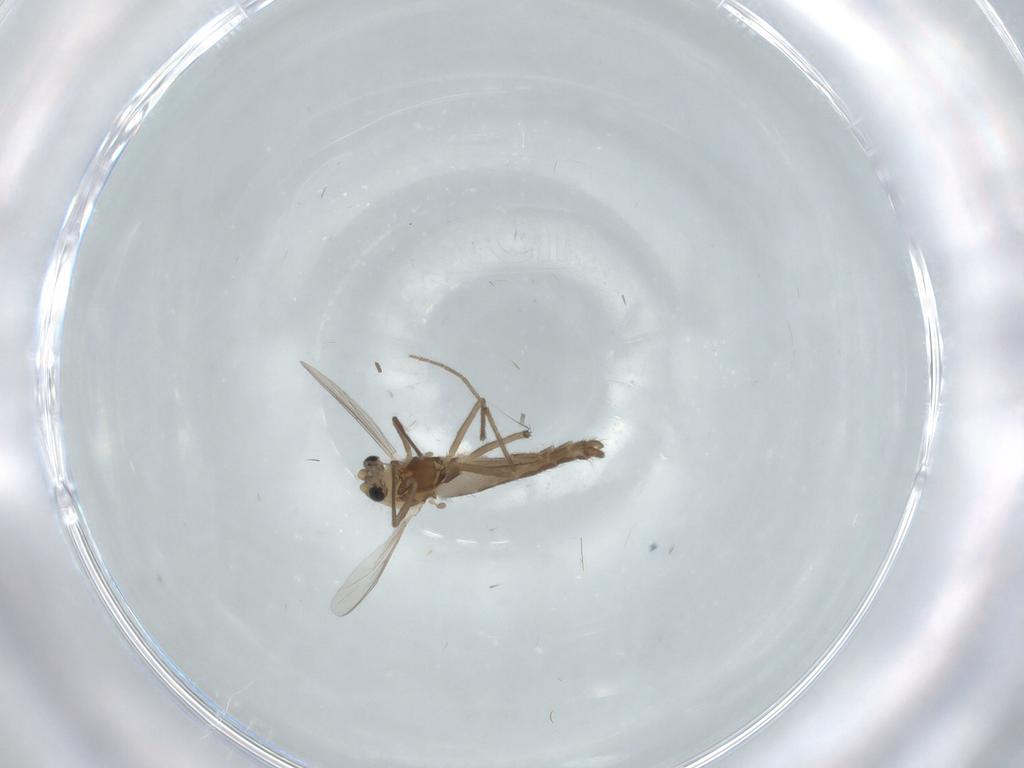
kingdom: Animalia
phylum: Arthropoda
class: Insecta
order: Diptera
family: Chironomidae
